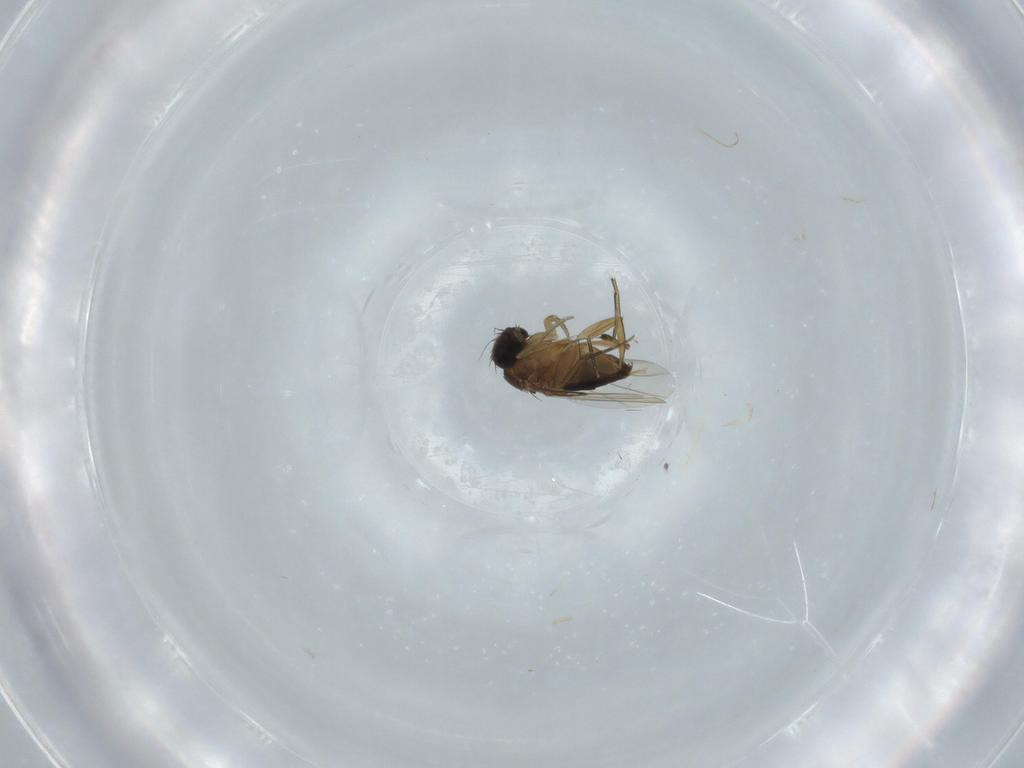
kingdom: Animalia
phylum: Arthropoda
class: Insecta
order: Diptera
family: Phoridae
